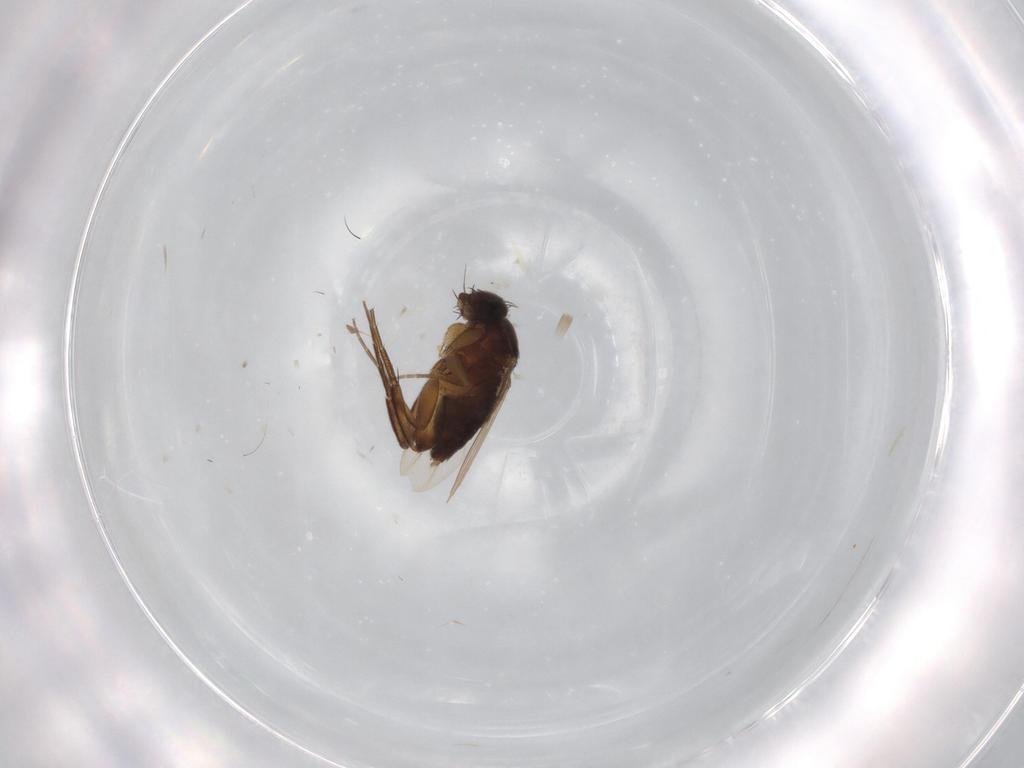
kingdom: Animalia
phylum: Arthropoda
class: Insecta
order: Diptera
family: Phoridae
